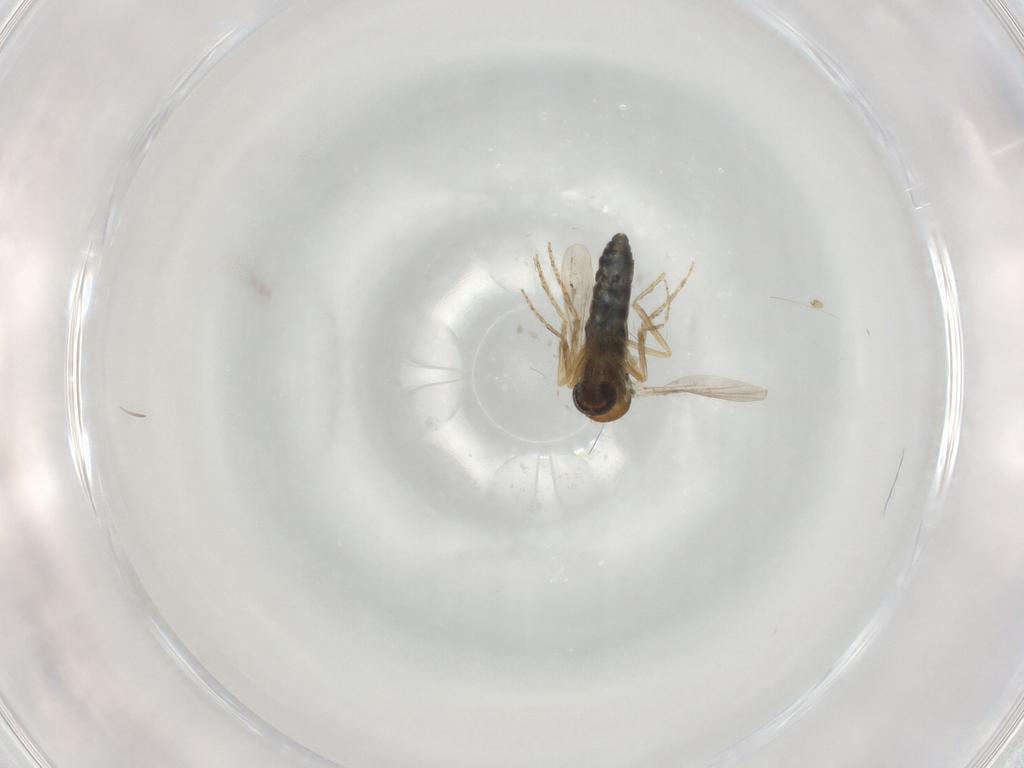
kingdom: Animalia
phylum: Arthropoda
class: Insecta
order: Diptera
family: Ceratopogonidae
